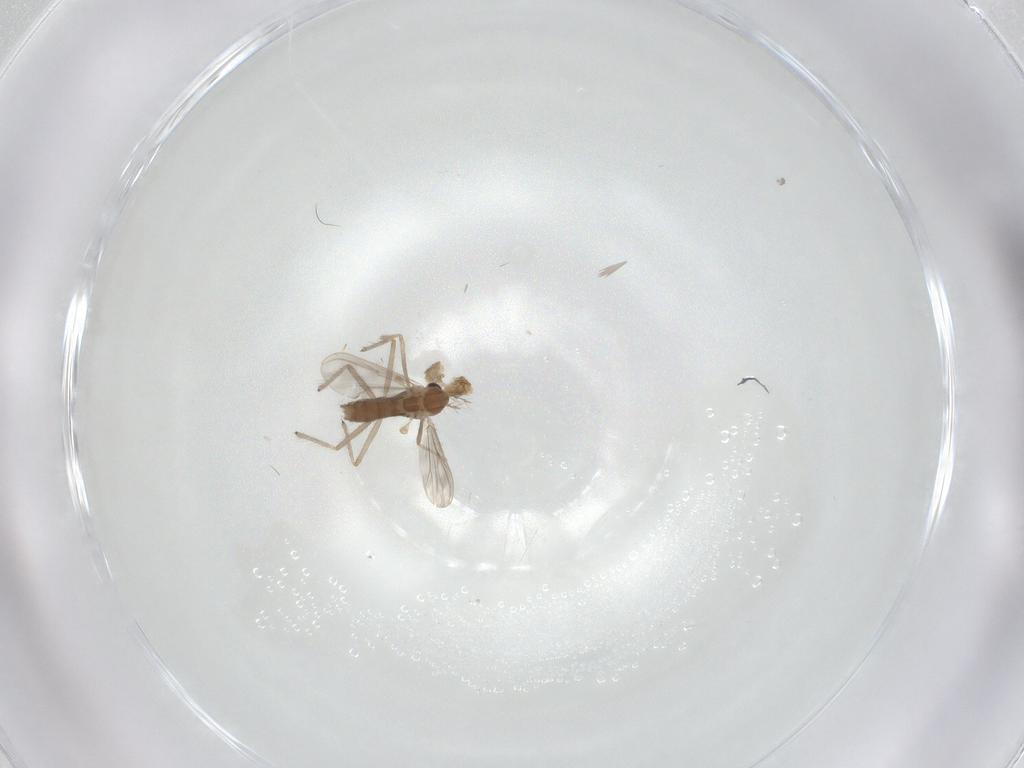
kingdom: Animalia
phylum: Arthropoda
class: Insecta
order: Diptera
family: Chironomidae
